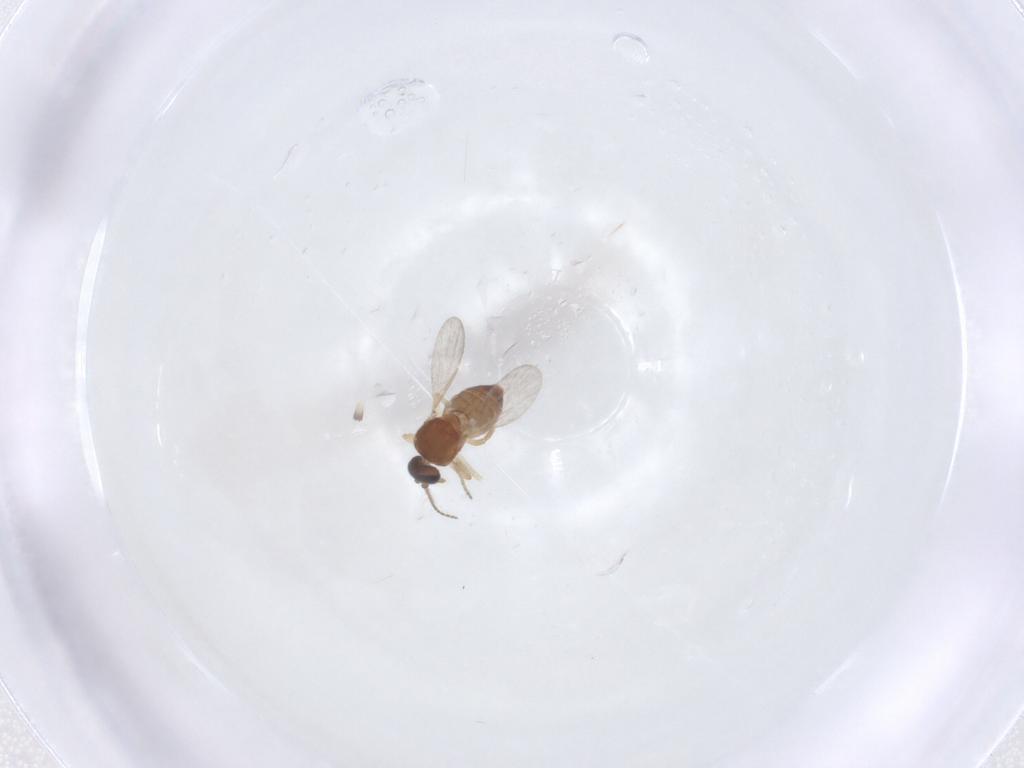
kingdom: Animalia
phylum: Arthropoda
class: Insecta
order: Diptera
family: Ceratopogonidae
